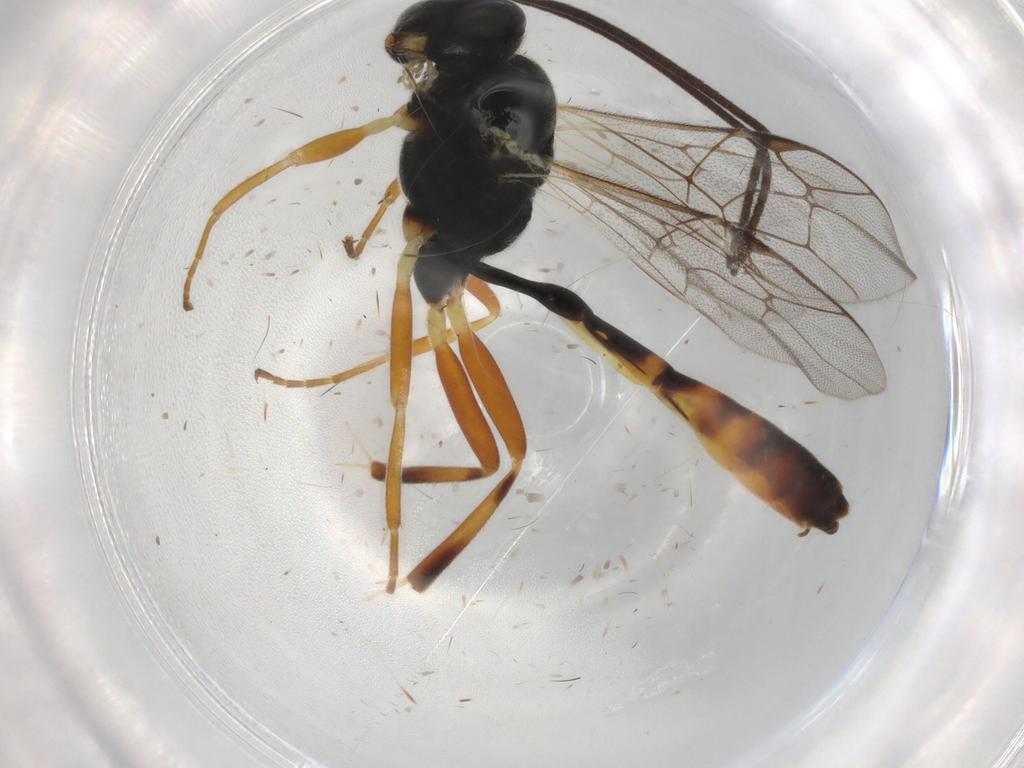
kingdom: Animalia
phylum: Arthropoda
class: Insecta
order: Hymenoptera
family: Ichneumonidae
